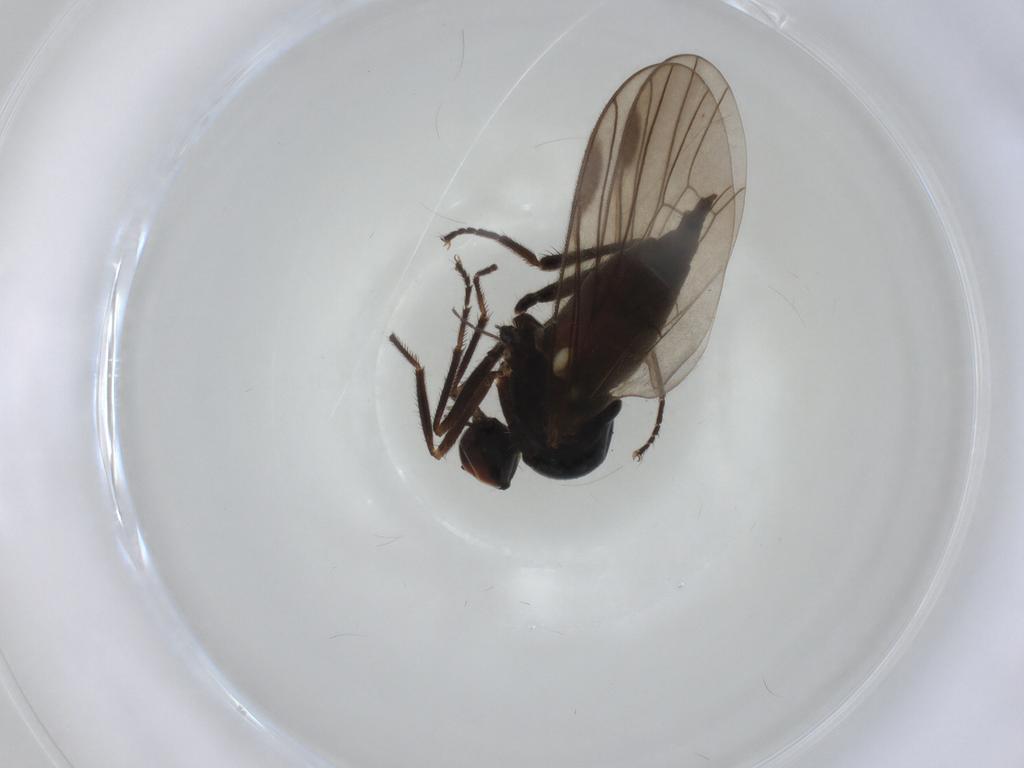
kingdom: Animalia
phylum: Arthropoda
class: Insecta
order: Diptera
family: Hybotidae
